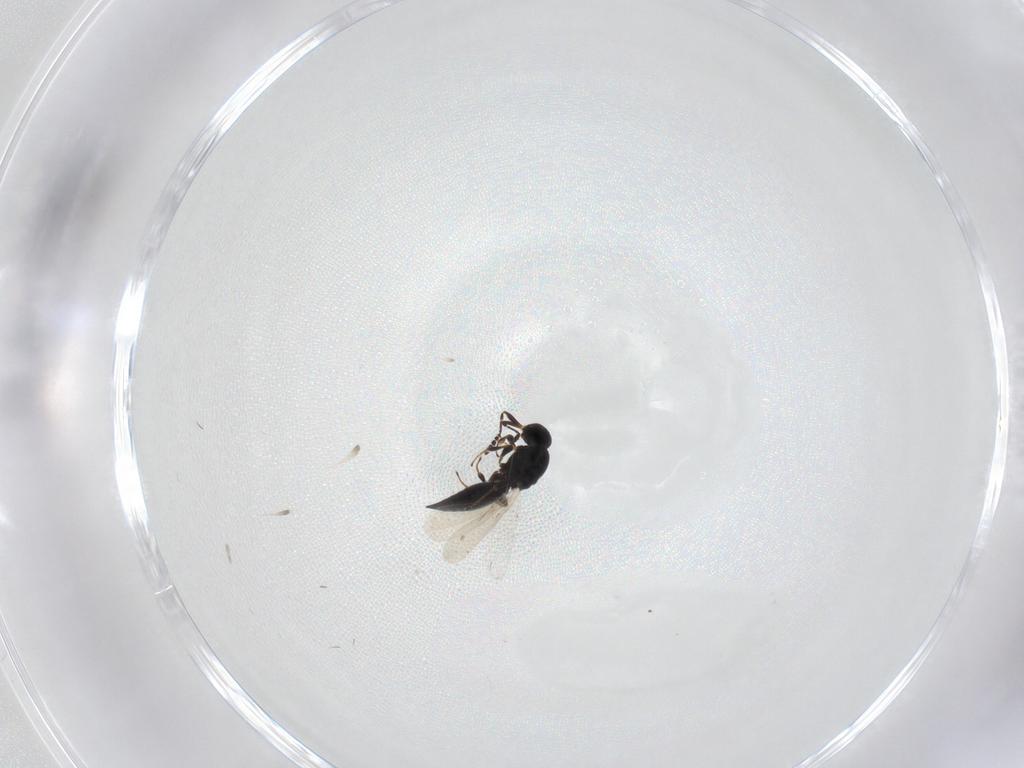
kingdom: Animalia
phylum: Arthropoda
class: Insecta
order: Hymenoptera
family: Platygastridae
